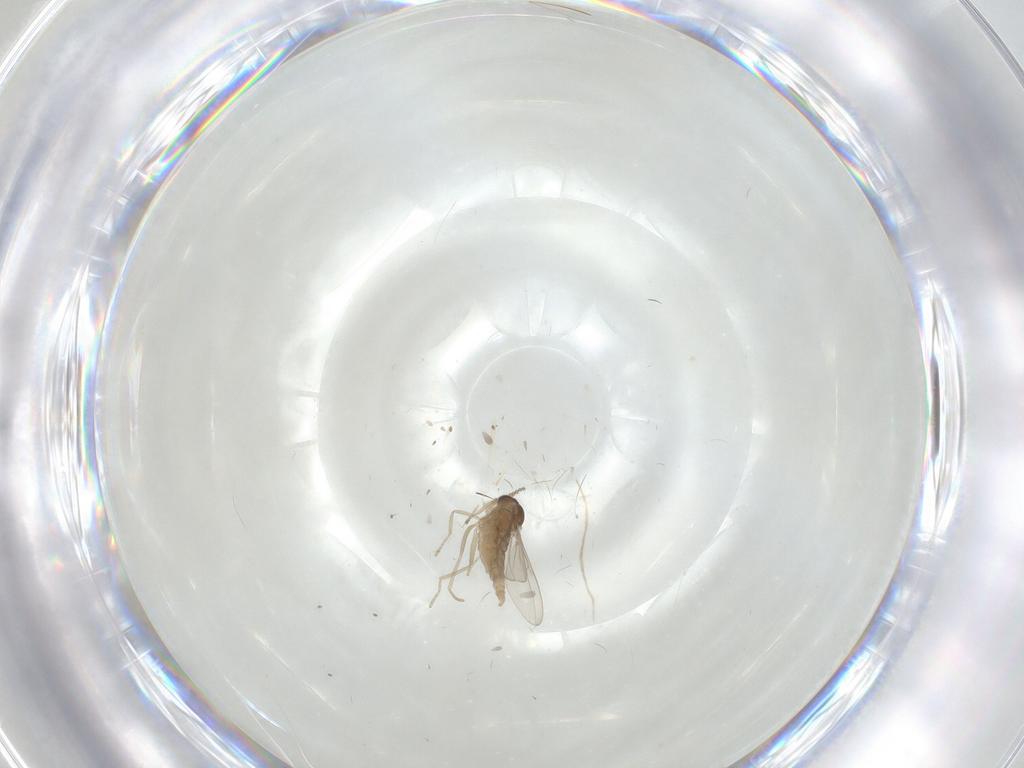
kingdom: Animalia
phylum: Arthropoda
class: Insecta
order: Diptera
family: Cecidomyiidae
